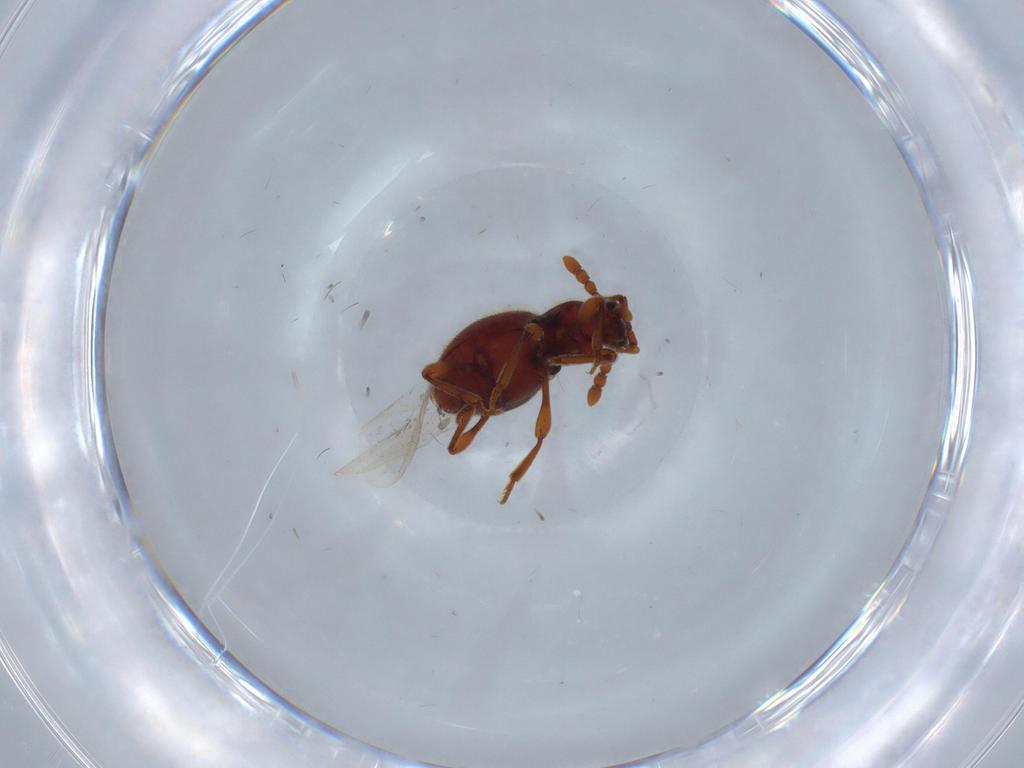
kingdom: Animalia
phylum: Arthropoda
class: Insecta
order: Coleoptera
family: Staphylinidae
